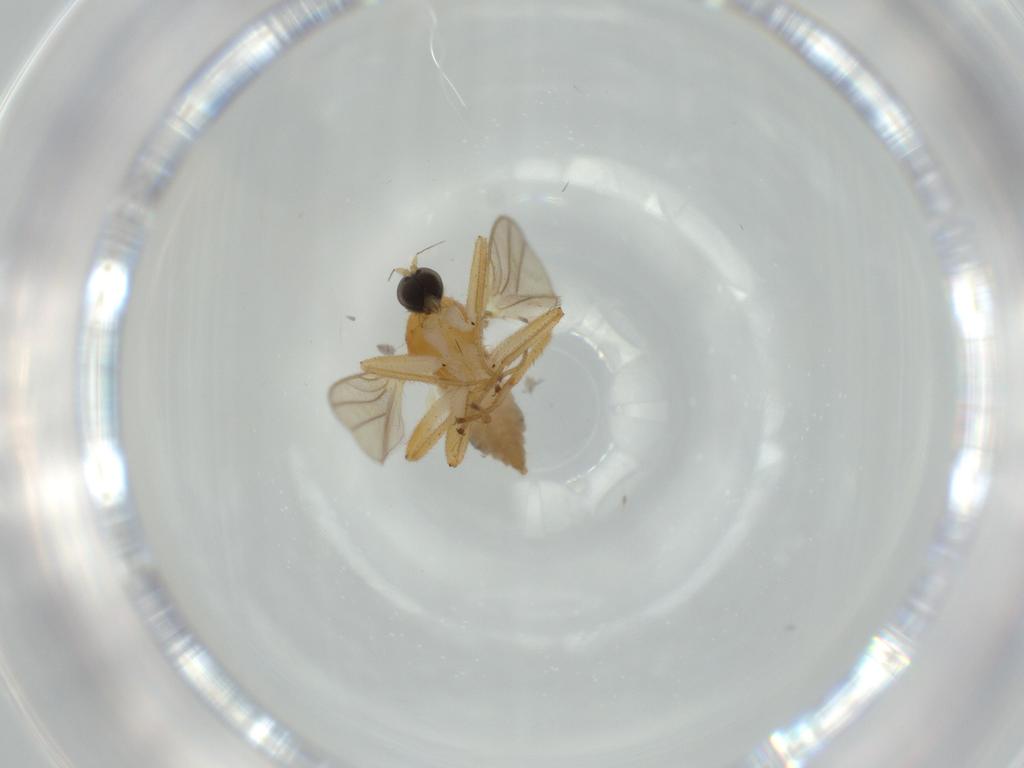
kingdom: Animalia
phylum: Arthropoda
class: Insecta
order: Diptera
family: Hybotidae
